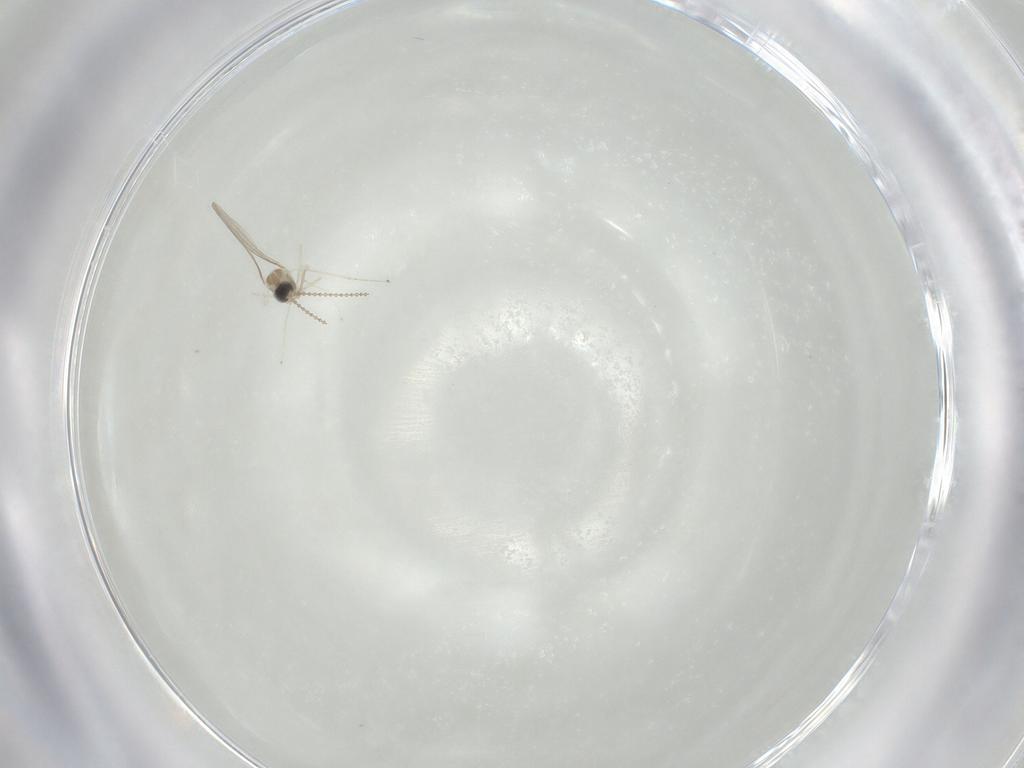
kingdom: Animalia
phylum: Arthropoda
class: Insecta
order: Diptera
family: Cecidomyiidae
